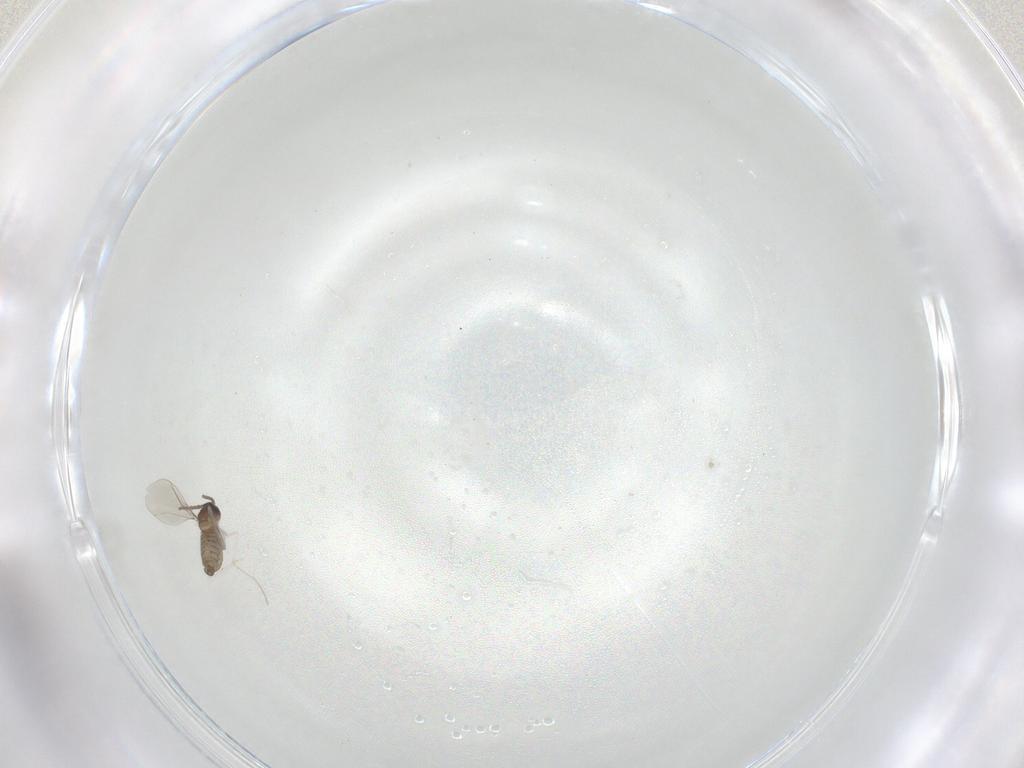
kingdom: Animalia
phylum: Arthropoda
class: Insecta
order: Diptera
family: Cecidomyiidae
